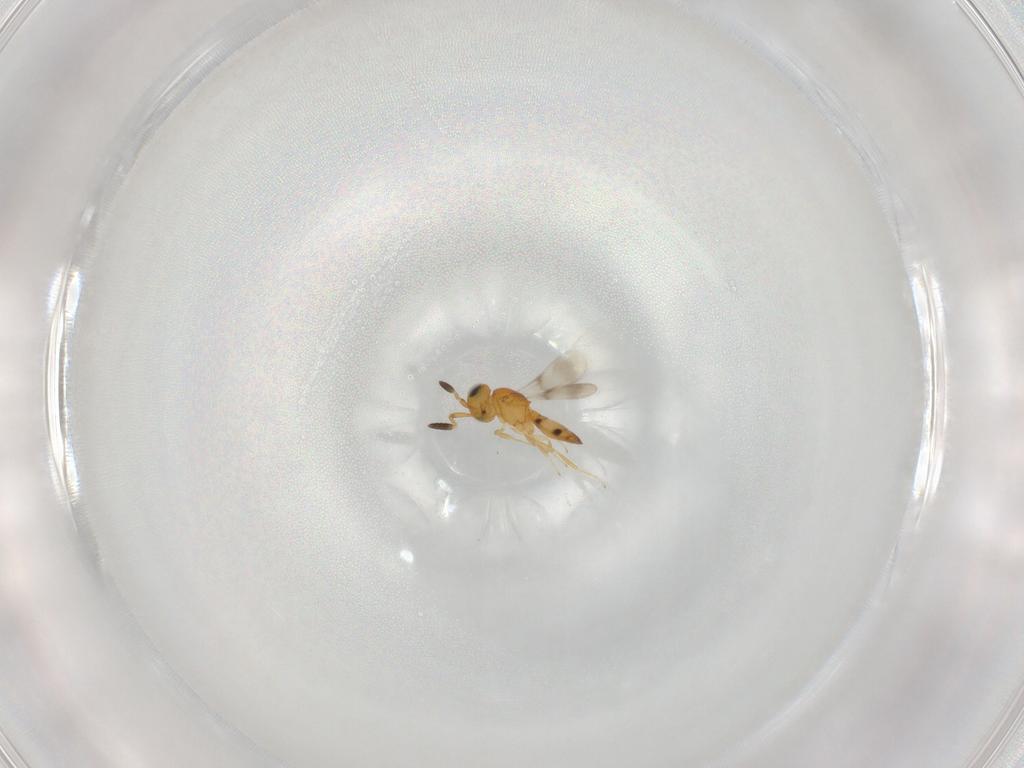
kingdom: Animalia
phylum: Arthropoda
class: Insecta
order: Hymenoptera
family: Scelionidae
